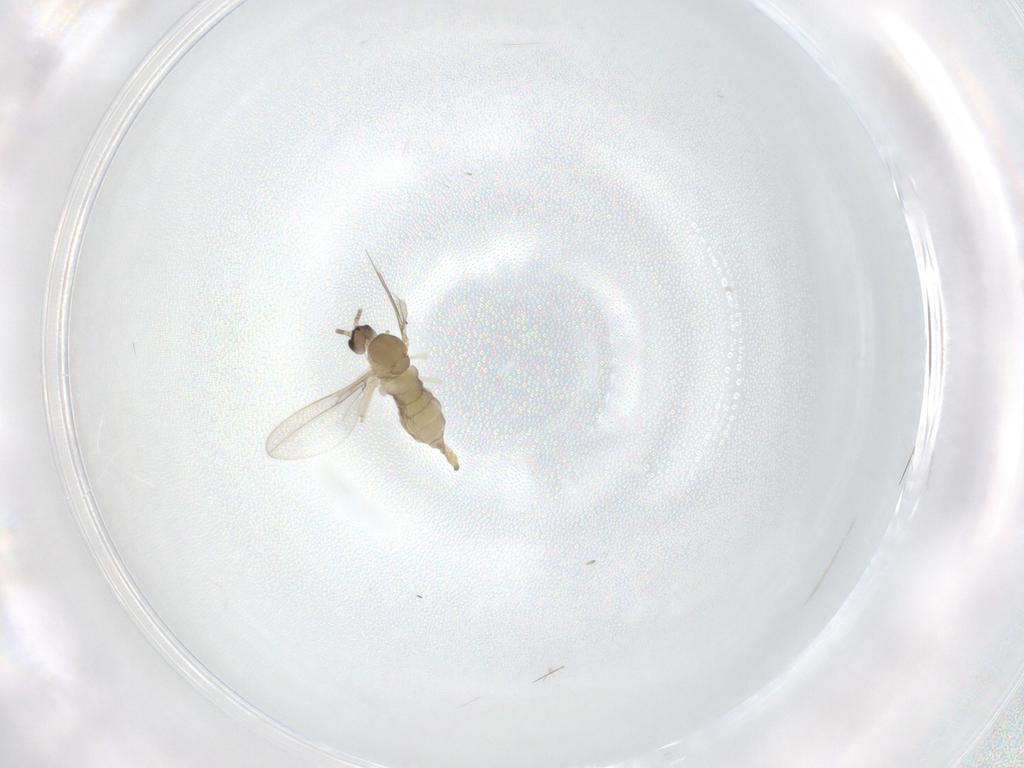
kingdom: Animalia
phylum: Arthropoda
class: Insecta
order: Diptera
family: Cecidomyiidae
